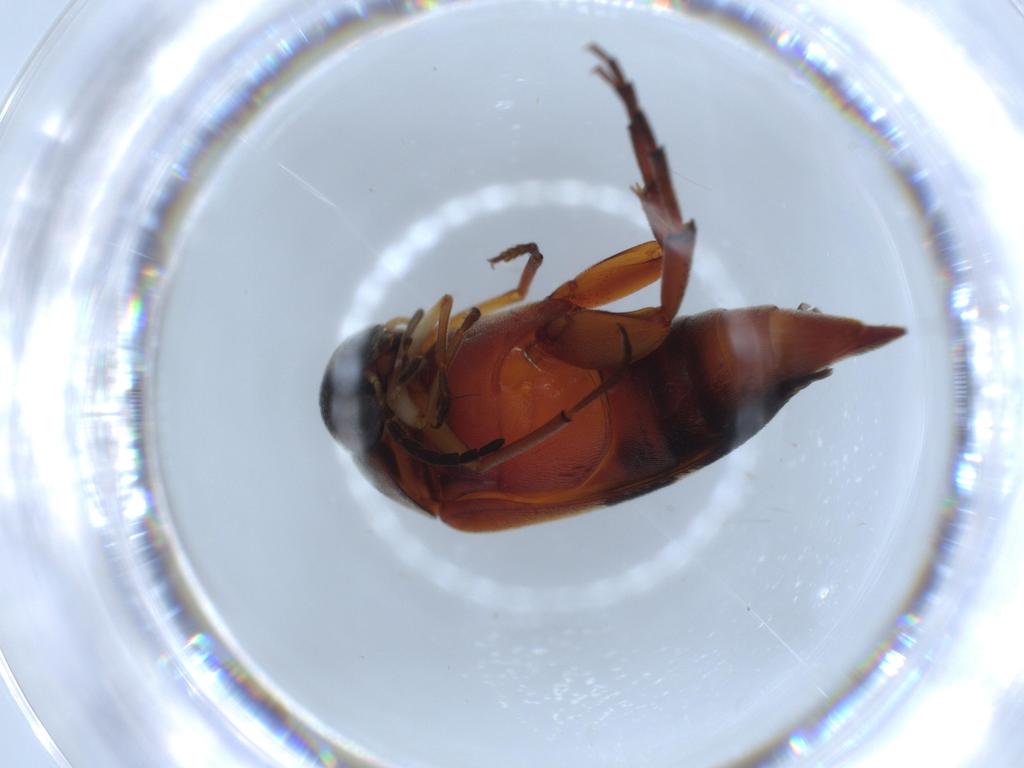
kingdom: Animalia
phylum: Arthropoda
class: Insecta
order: Coleoptera
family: Mordellidae
